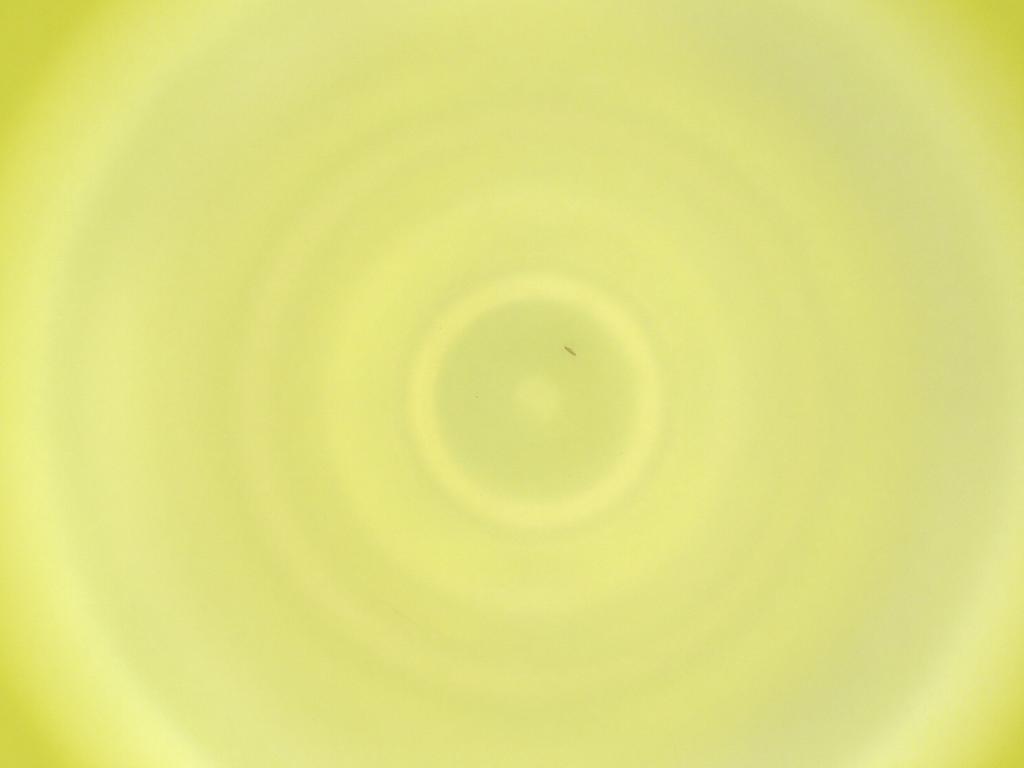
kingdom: Animalia
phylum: Arthropoda
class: Insecta
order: Diptera
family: Cecidomyiidae
